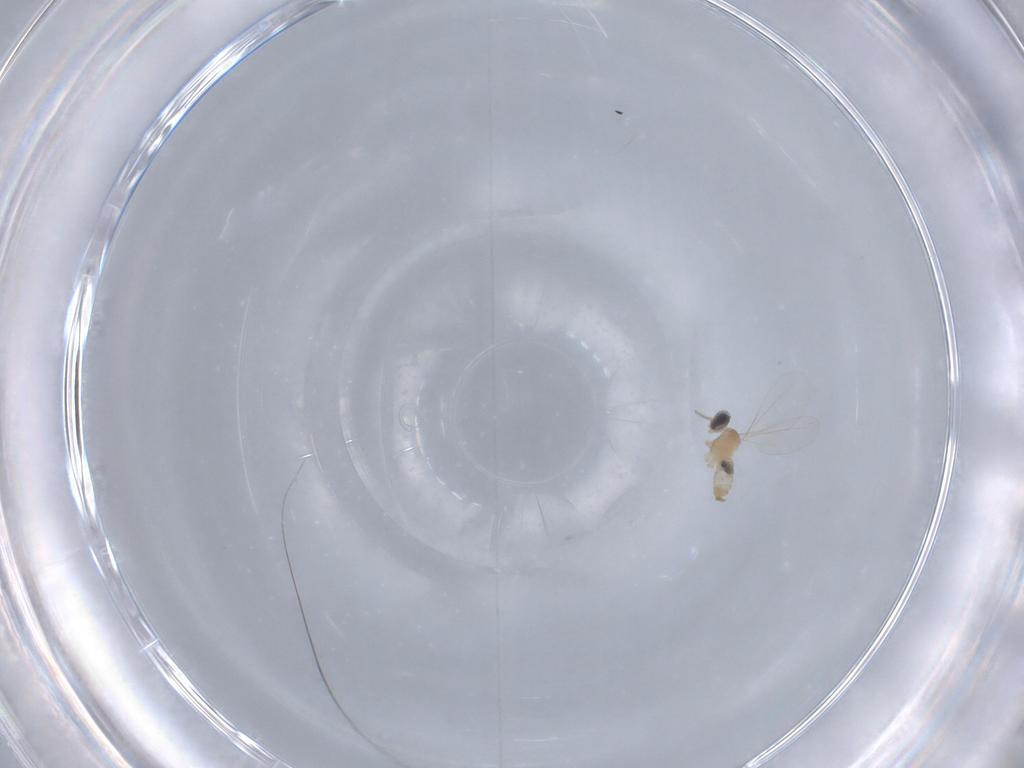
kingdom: Animalia
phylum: Arthropoda
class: Insecta
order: Diptera
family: Cecidomyiidae
